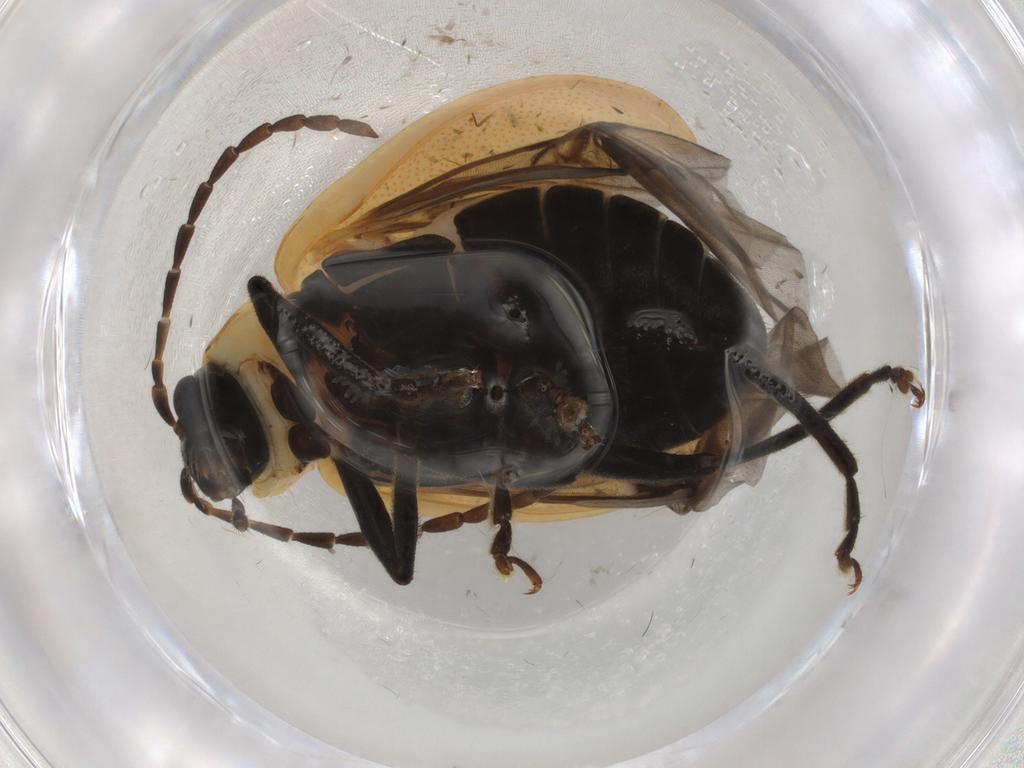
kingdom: Animalia
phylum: Arthropoda
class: Insecta
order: Coleoptera
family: Chrysomelidae
